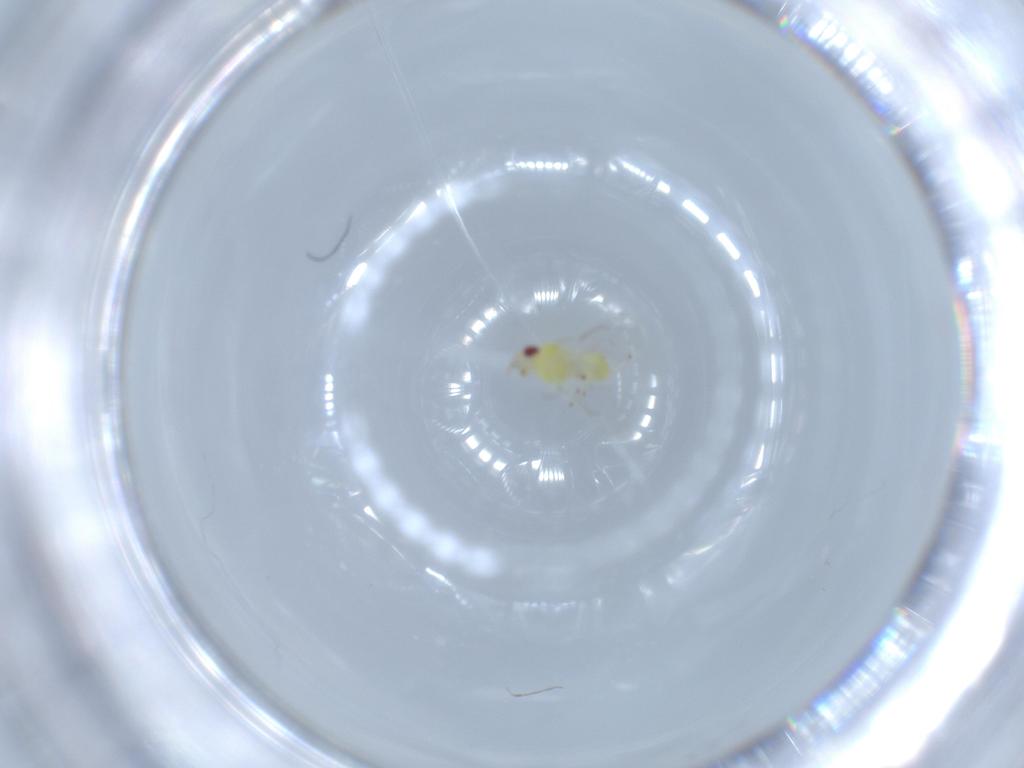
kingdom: Animalia
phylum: Arthropoda
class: Insecta
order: Hymenoptera
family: Eulophidae
